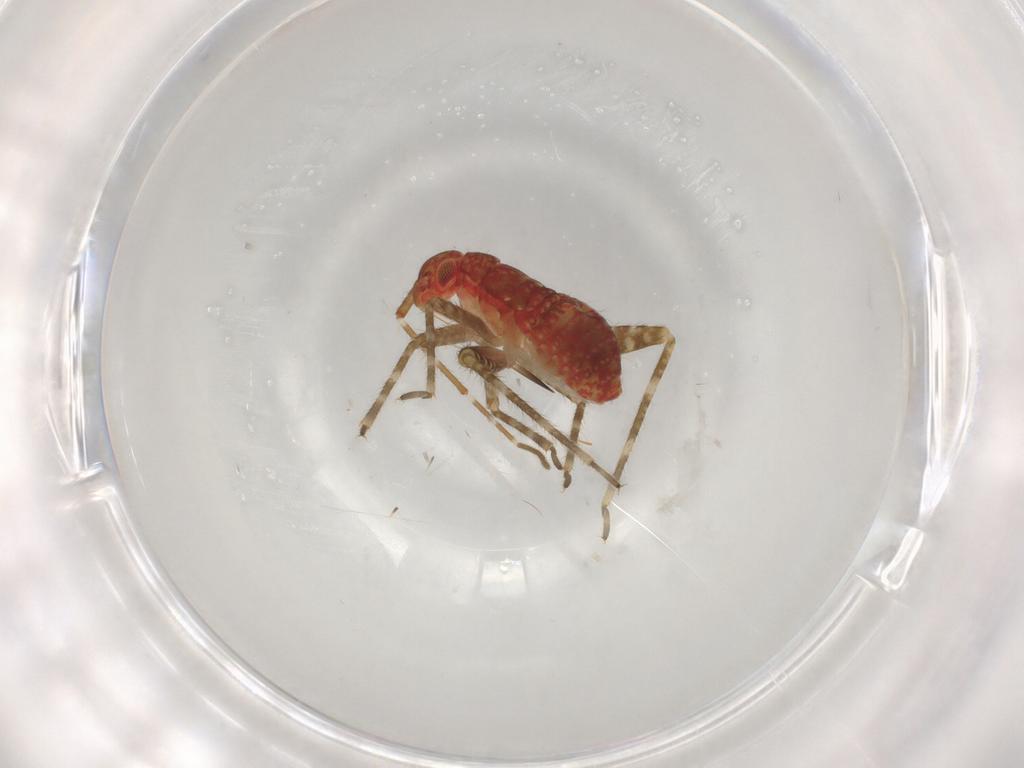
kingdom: Animalia
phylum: Arthropoda
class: Insecta
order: Hemiptera
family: Miridae
